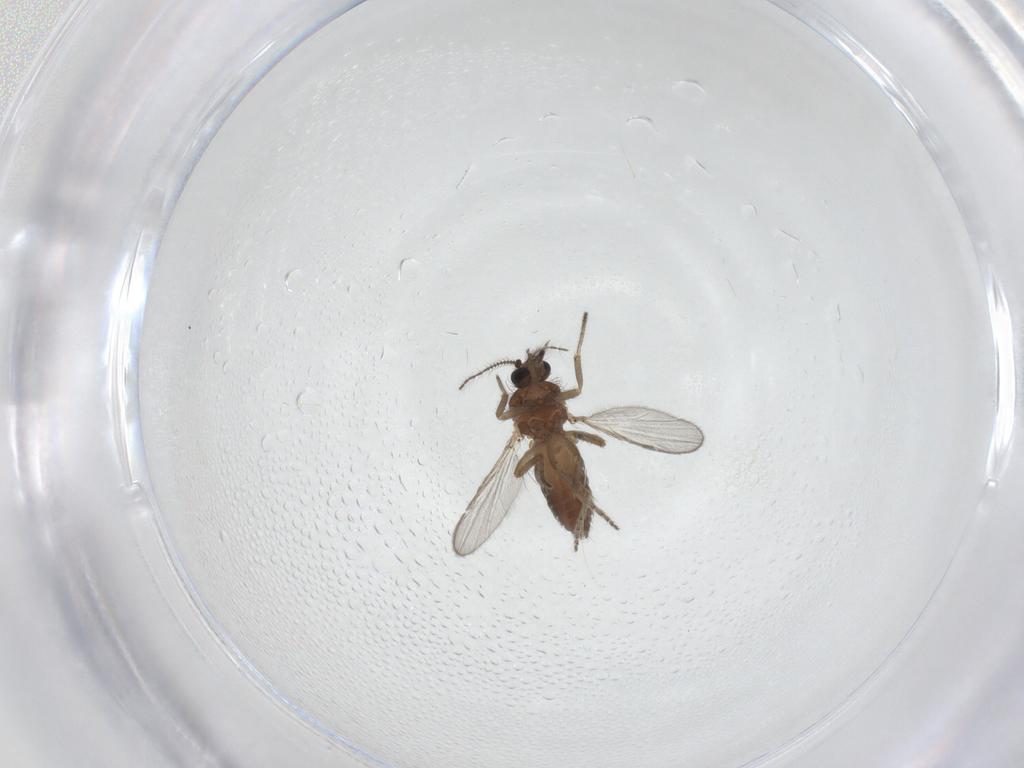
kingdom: Animalia
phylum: Arthropoda
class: Insecta
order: Diptera
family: Ceratopogonidae
